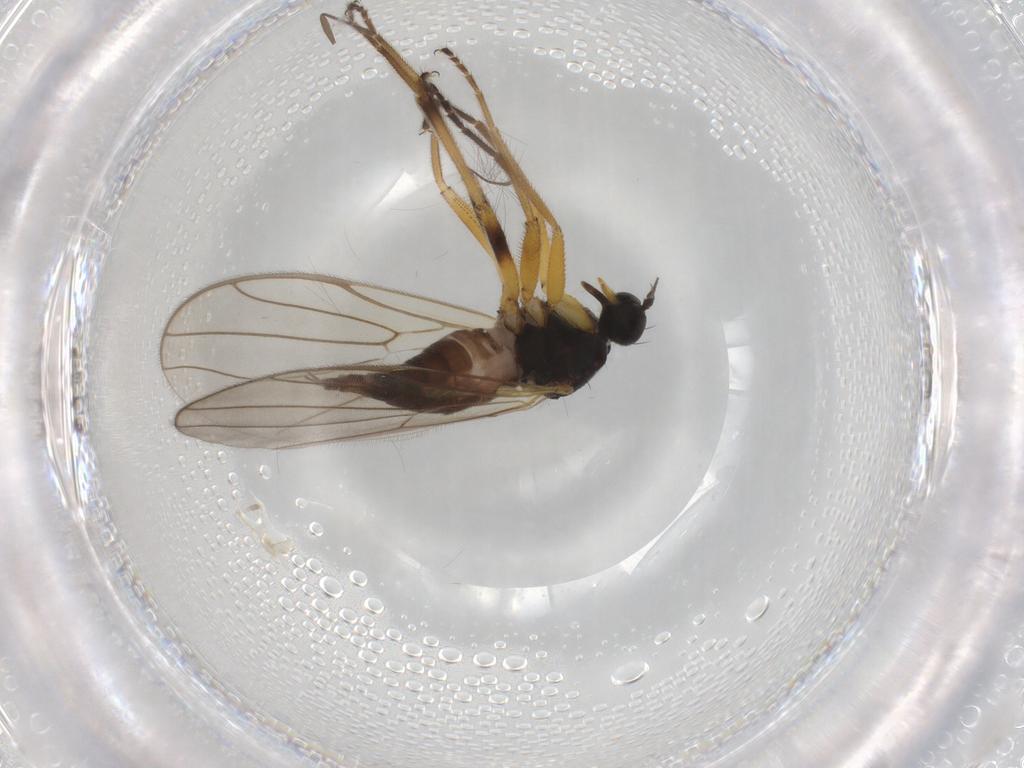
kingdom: Animalia
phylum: Arthropoda
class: Insecta
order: Diptera
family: Hybotidae
